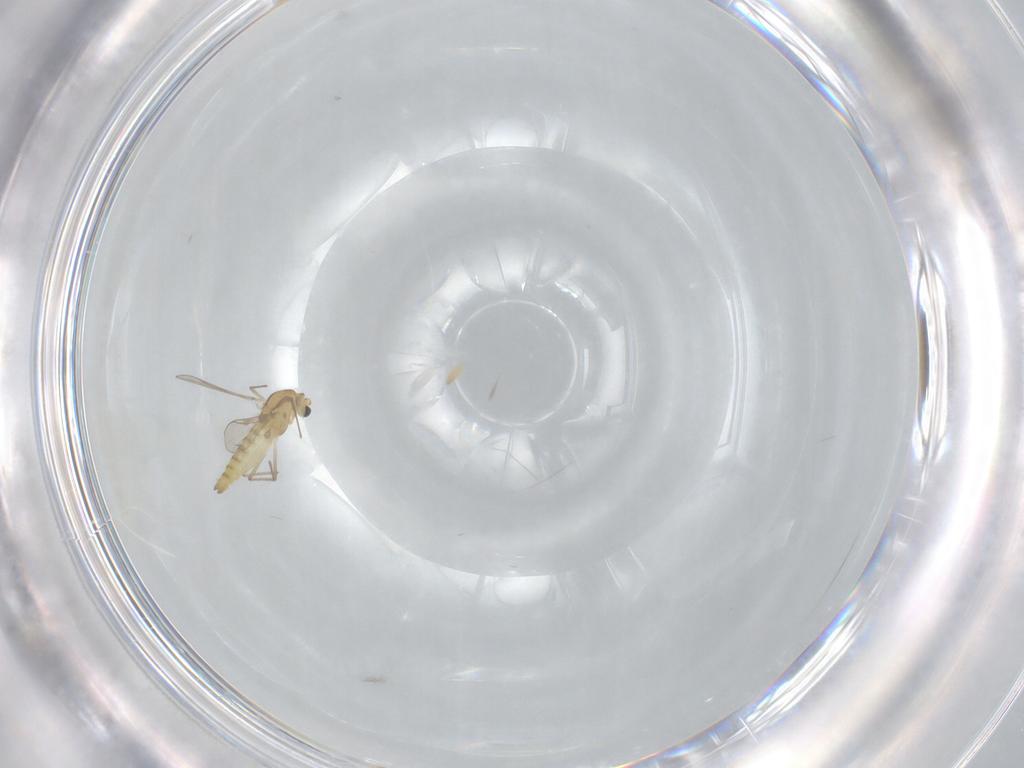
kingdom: Animalia
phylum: Arthropoda
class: Insecta
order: Diptera
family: Chironomidae
